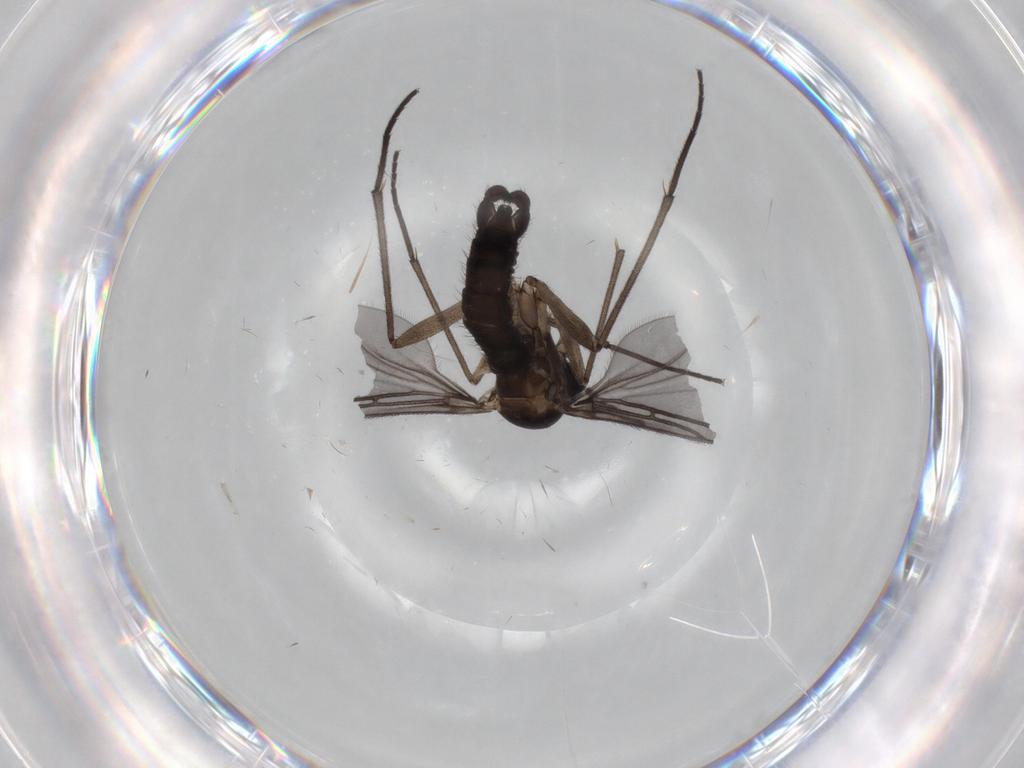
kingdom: Animalia
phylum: Arthropoda
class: Insecta
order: Diptera
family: Sciaridae
